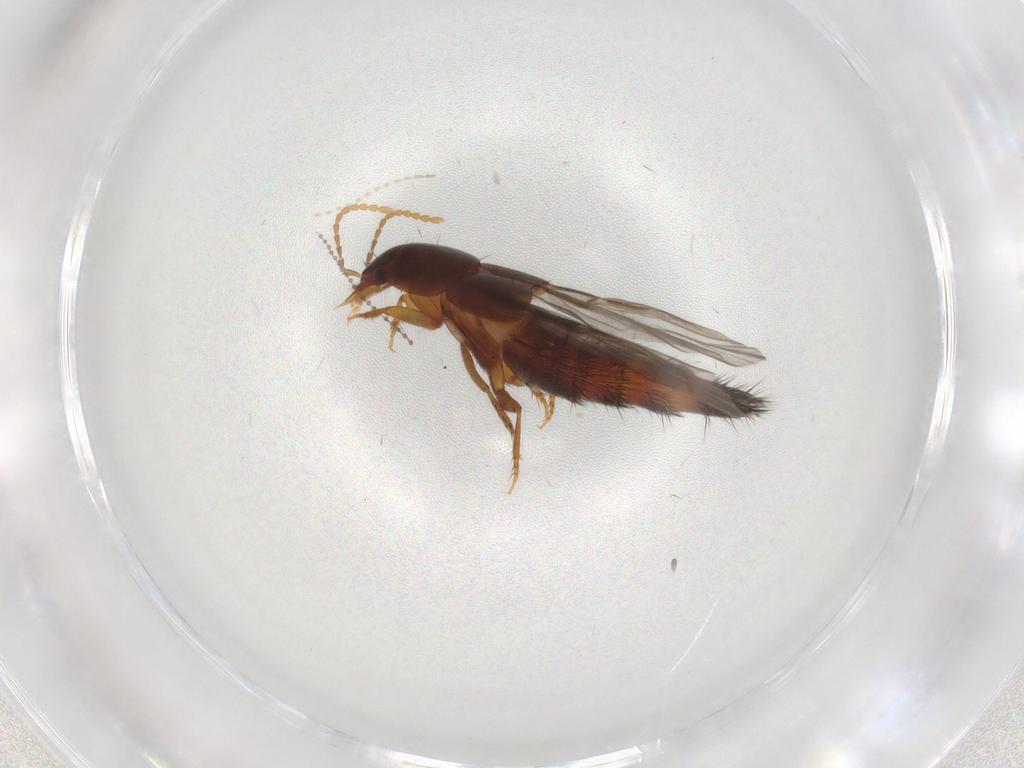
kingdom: Animalia
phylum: Arthropoda
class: Insecta
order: Coleoptera
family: Staphylinidae
